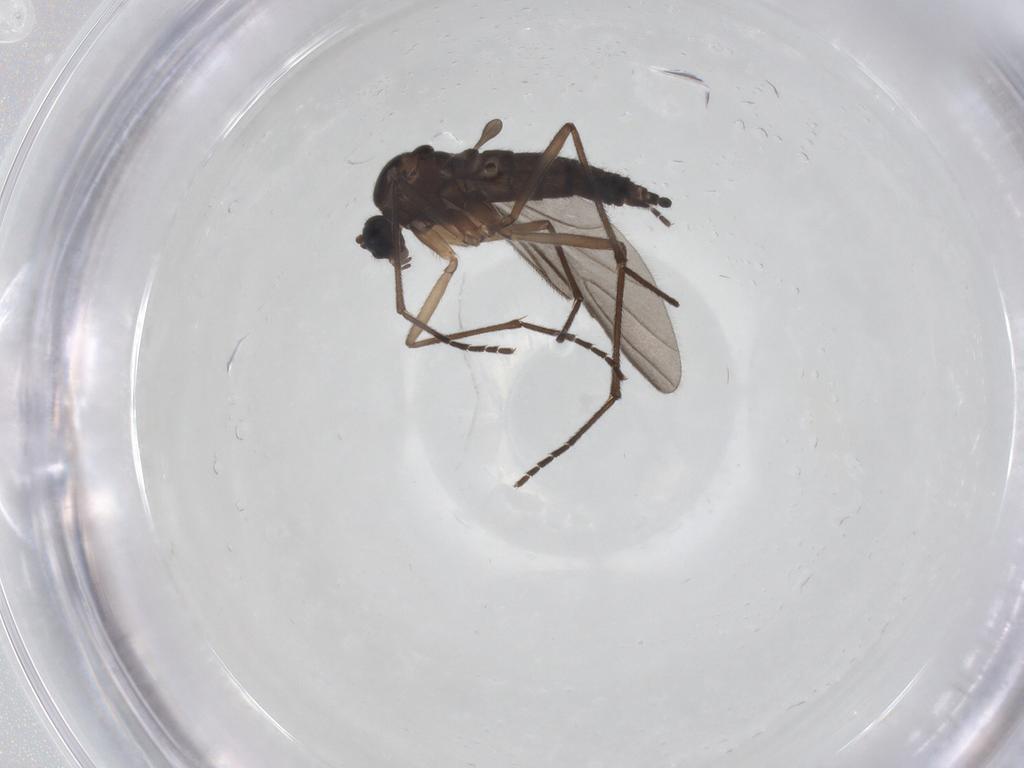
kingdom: Animalia
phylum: Arthropoda
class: Insecta
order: Diptera
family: Sciaridae
